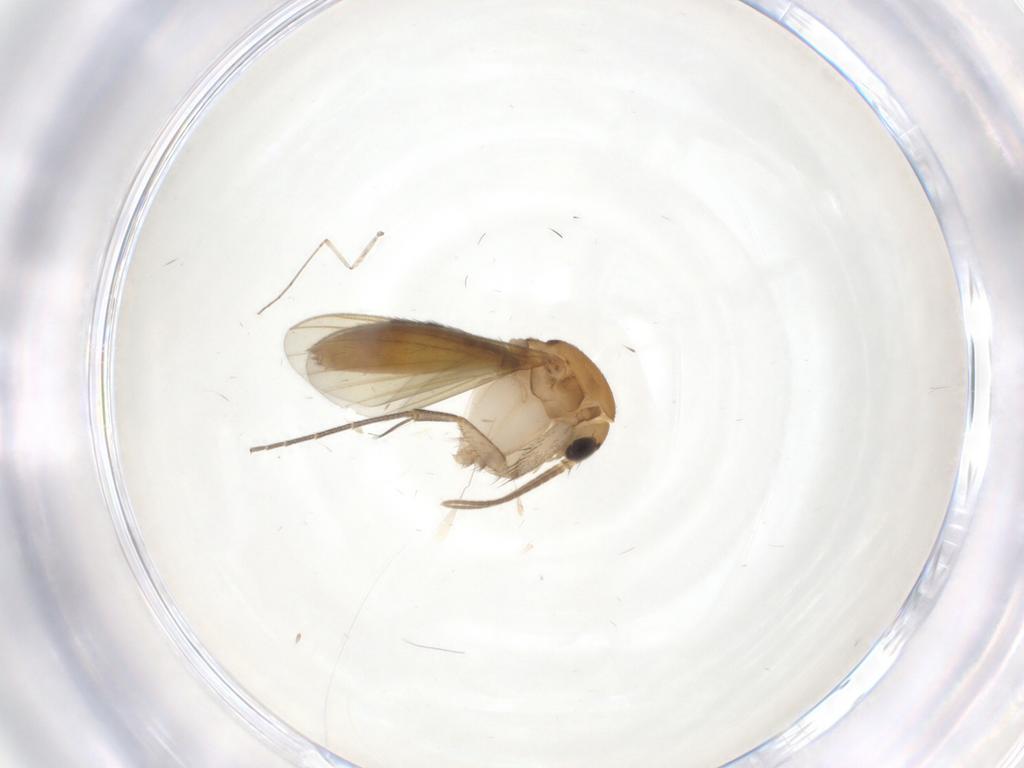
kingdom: Animalia
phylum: Arthropoda
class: Insecta
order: Diptera
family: Mycetophilidae
